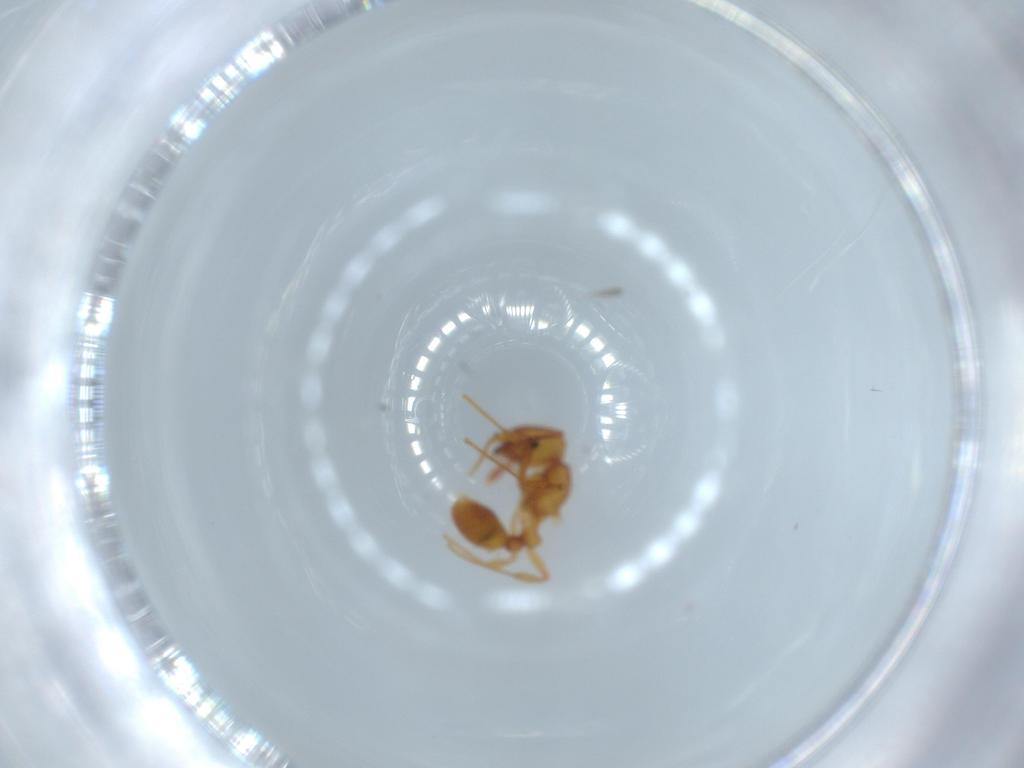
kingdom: Animalia
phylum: Arthropoda
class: Insecta
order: Hymenoptera
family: Formicidae
